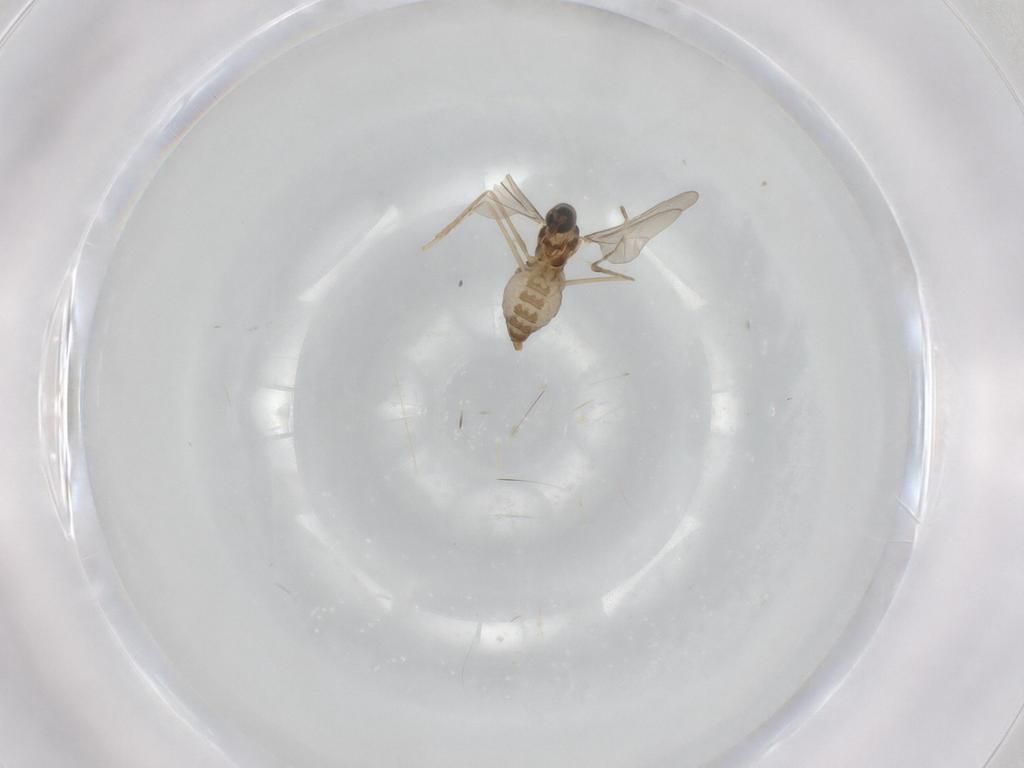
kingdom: Animalia
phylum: Arthropoda
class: Insecta
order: Diptera
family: Cecidomyiidae
